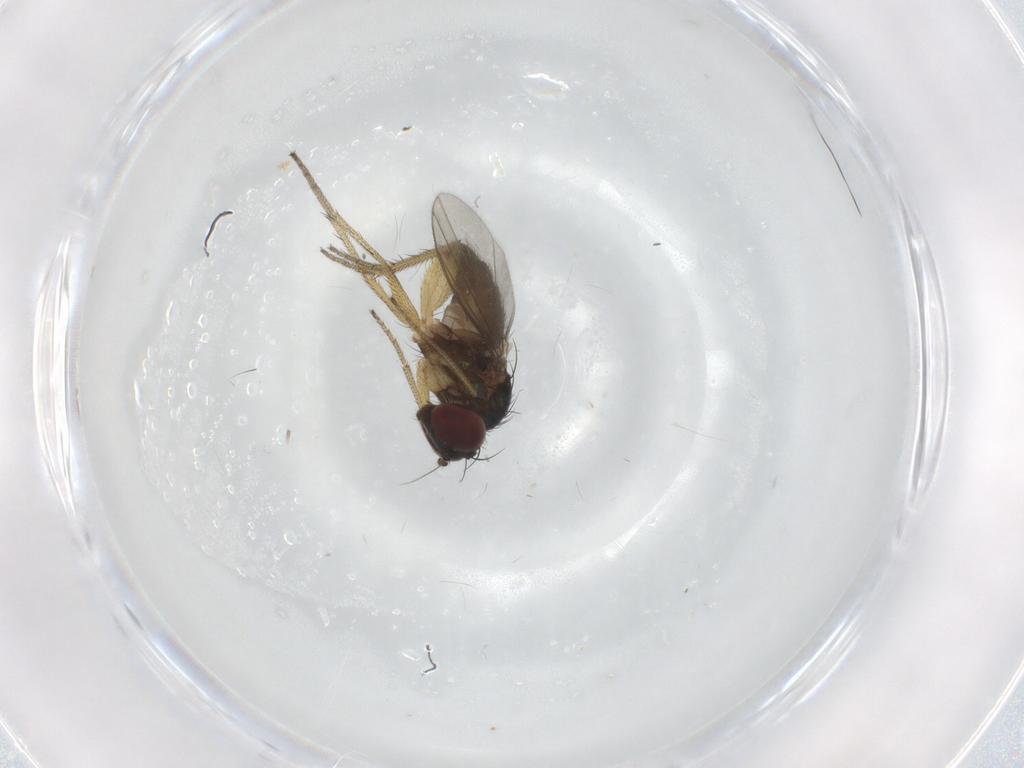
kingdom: Animalia
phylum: Arthropoda
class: Insecta
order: Diptera
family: Dolichopodidae
